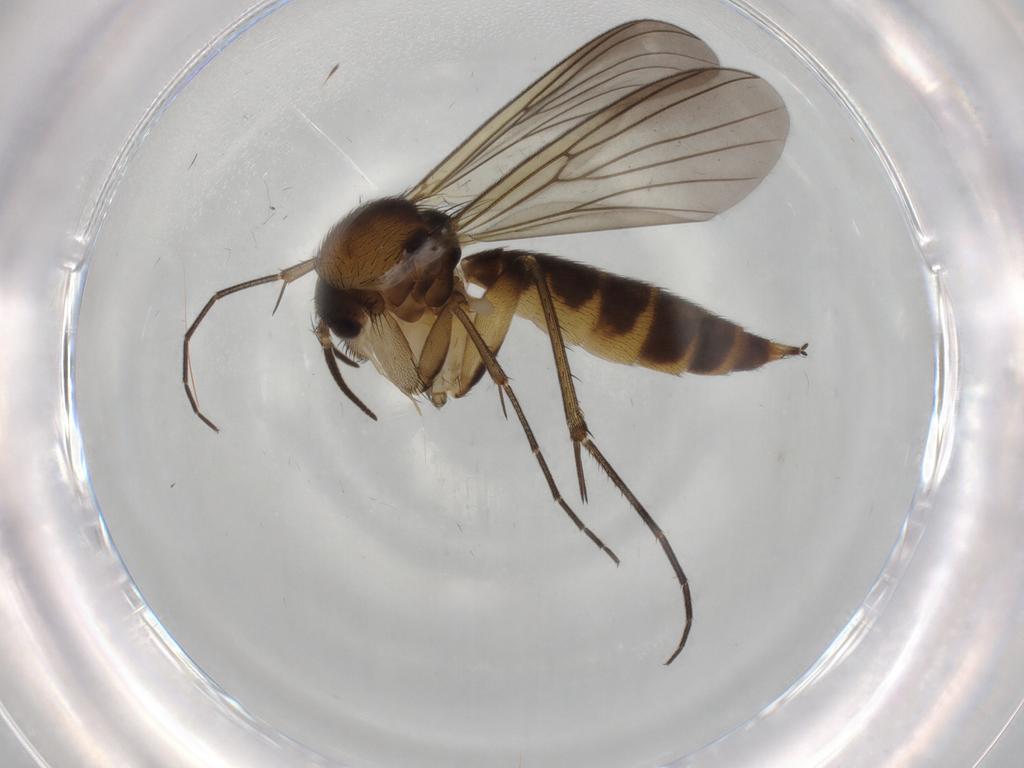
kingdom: Animalia
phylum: Arthropoda
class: Insecta
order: Diptera
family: Mycetophilidae
